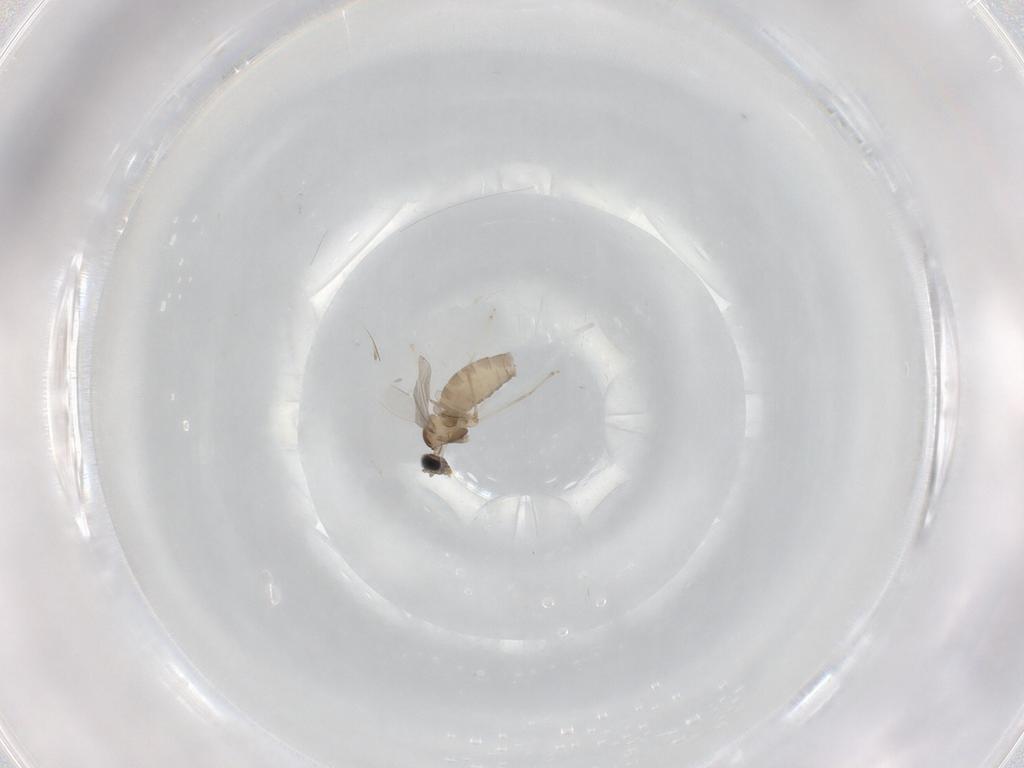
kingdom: Animalia
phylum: Arthropoda
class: Insecta
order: Diptera
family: Cecidomyiidae
